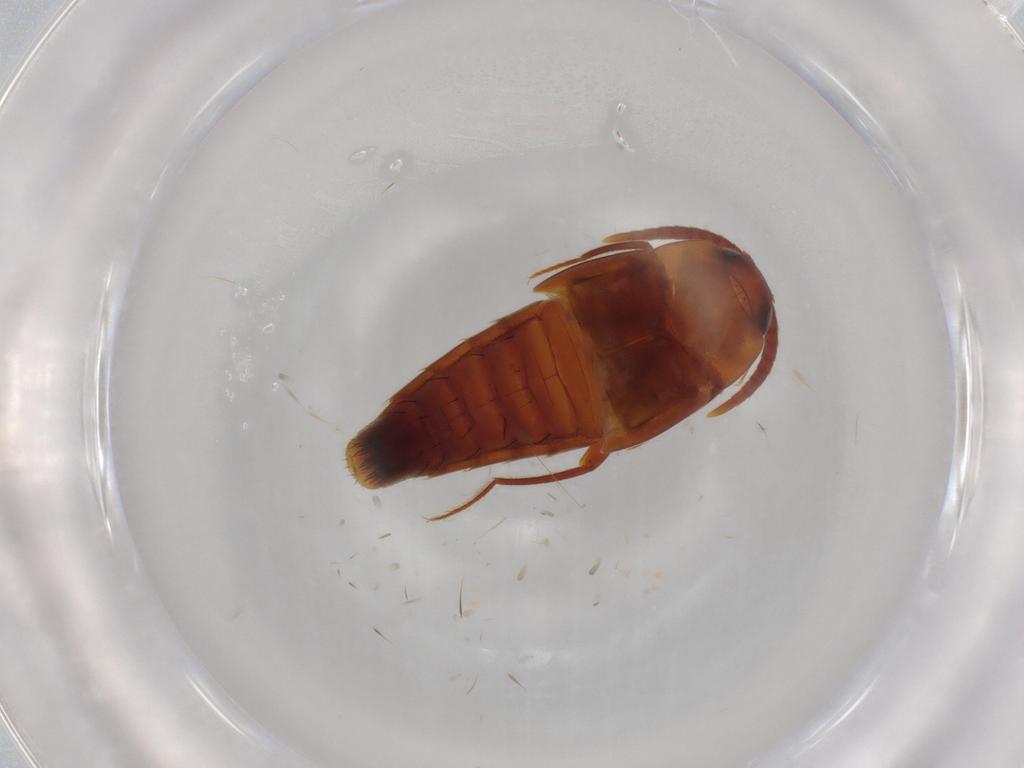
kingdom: Animalia
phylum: Arthropoda
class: Insecta
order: Coleoptera
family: Staphylinidae
